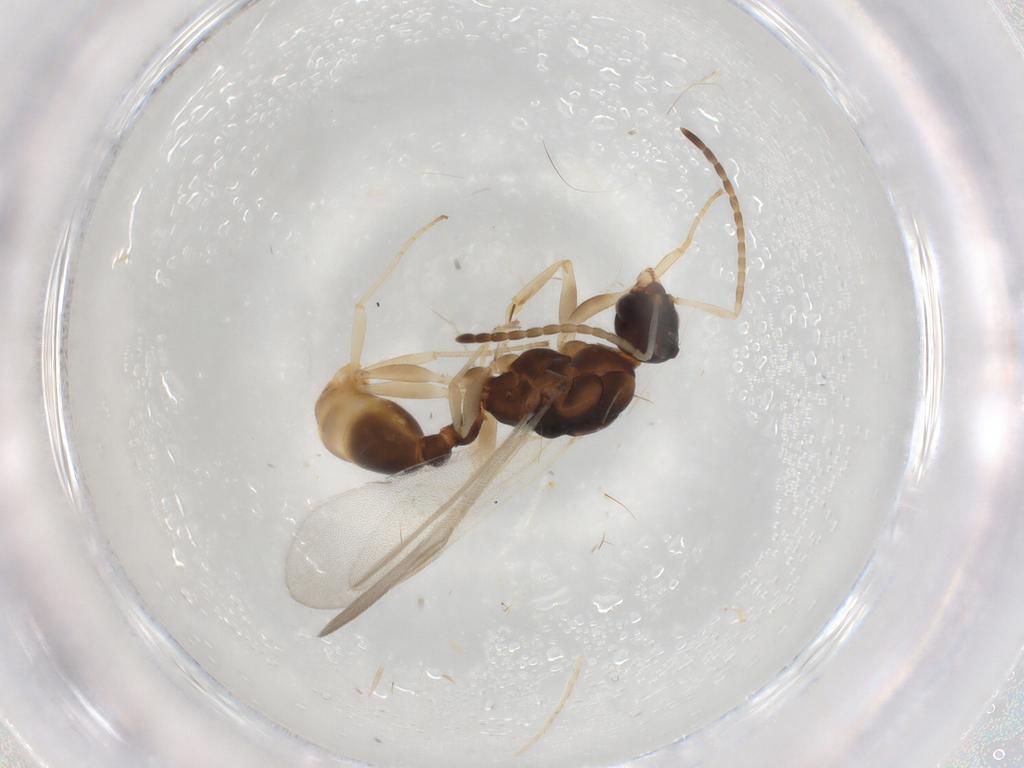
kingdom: Animalia
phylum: Arthropoda
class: Insecta
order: Hymenoptera
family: Formicidae
